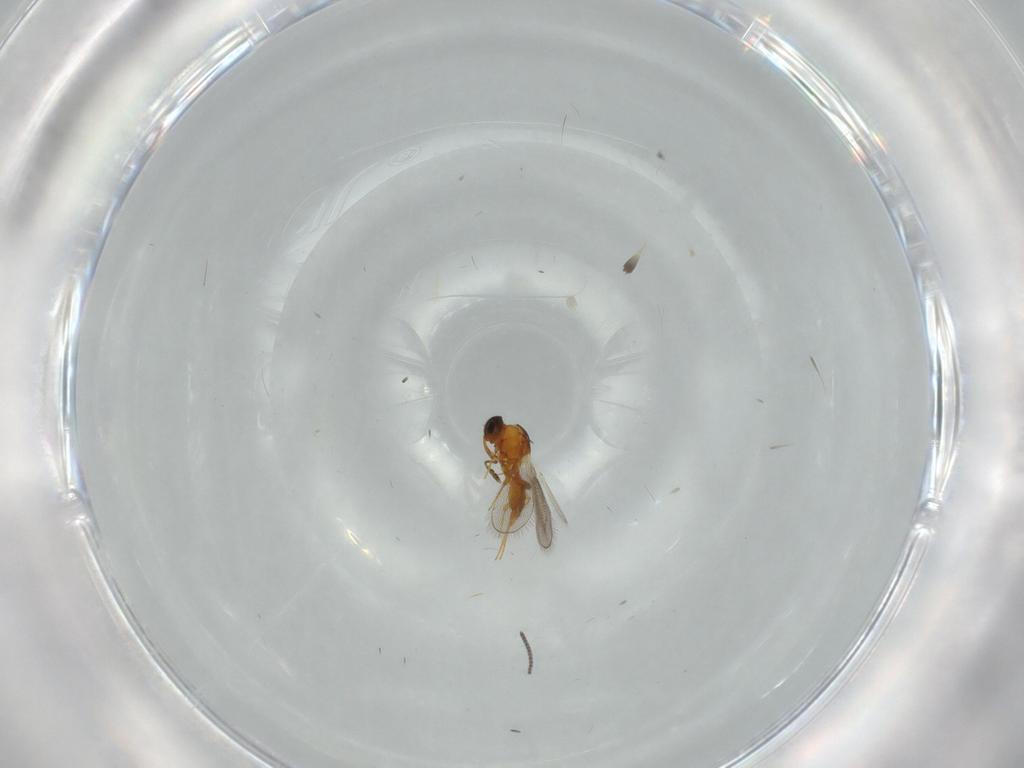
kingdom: Animalia
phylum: Arthropoda
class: Insecta
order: Hymenoptera
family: Platygastridae
